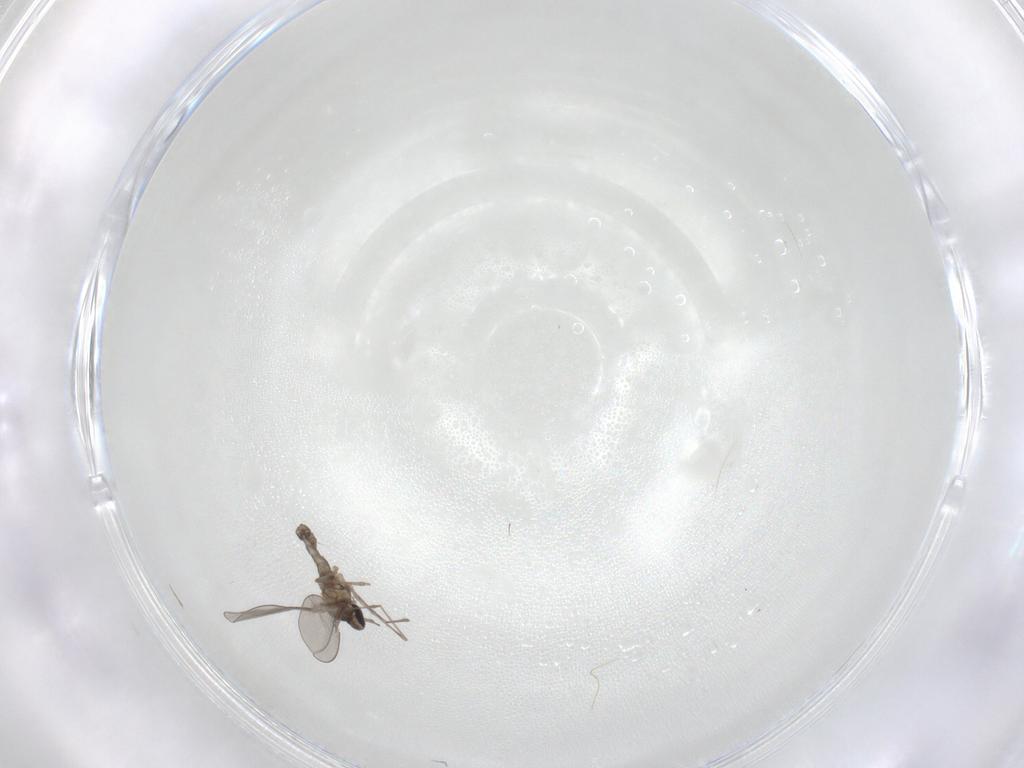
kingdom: Animalia
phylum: Arthropoda
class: Insecta
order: Diptera
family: Cecidomyiidae
